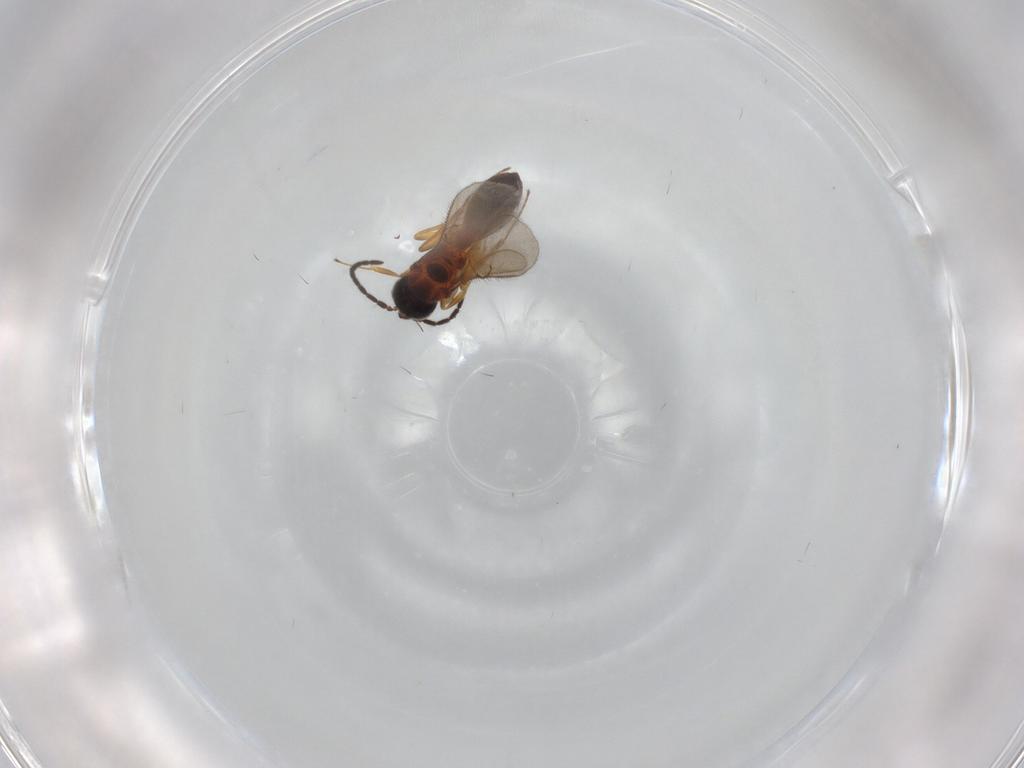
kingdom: Animalia
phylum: Arthropoda
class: Insecta
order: Hymenoptera
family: Scelionidae
